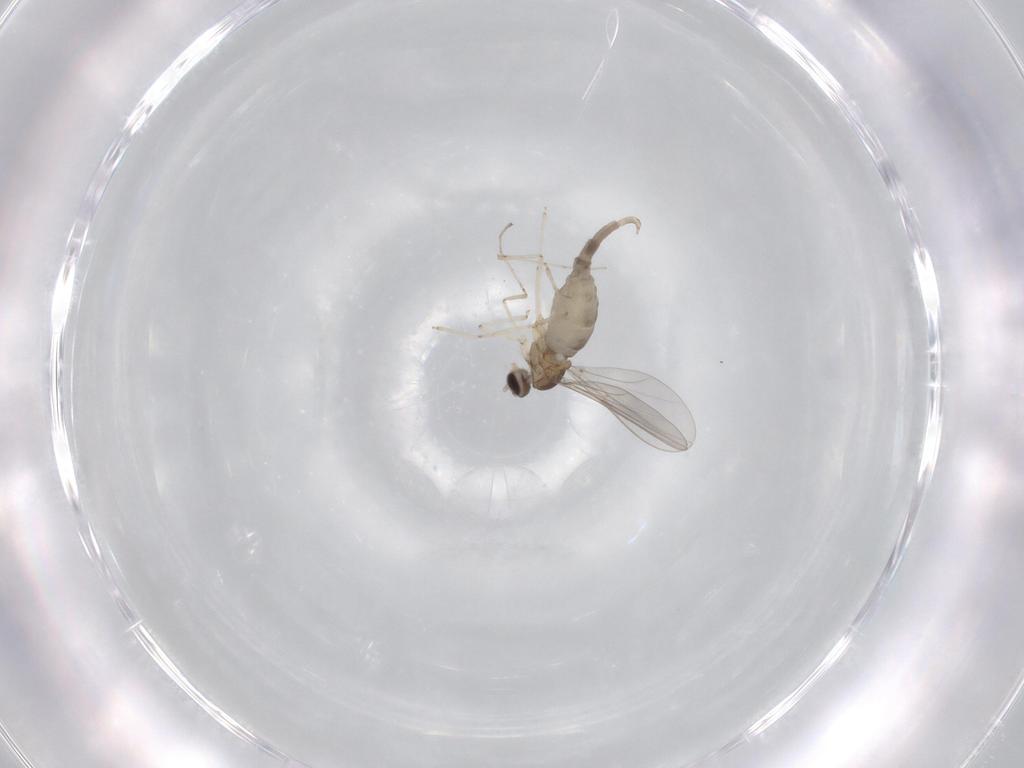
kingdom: Animalia
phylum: Arthropoda
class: Insecta
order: Diptera
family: Cecidomyiidae
